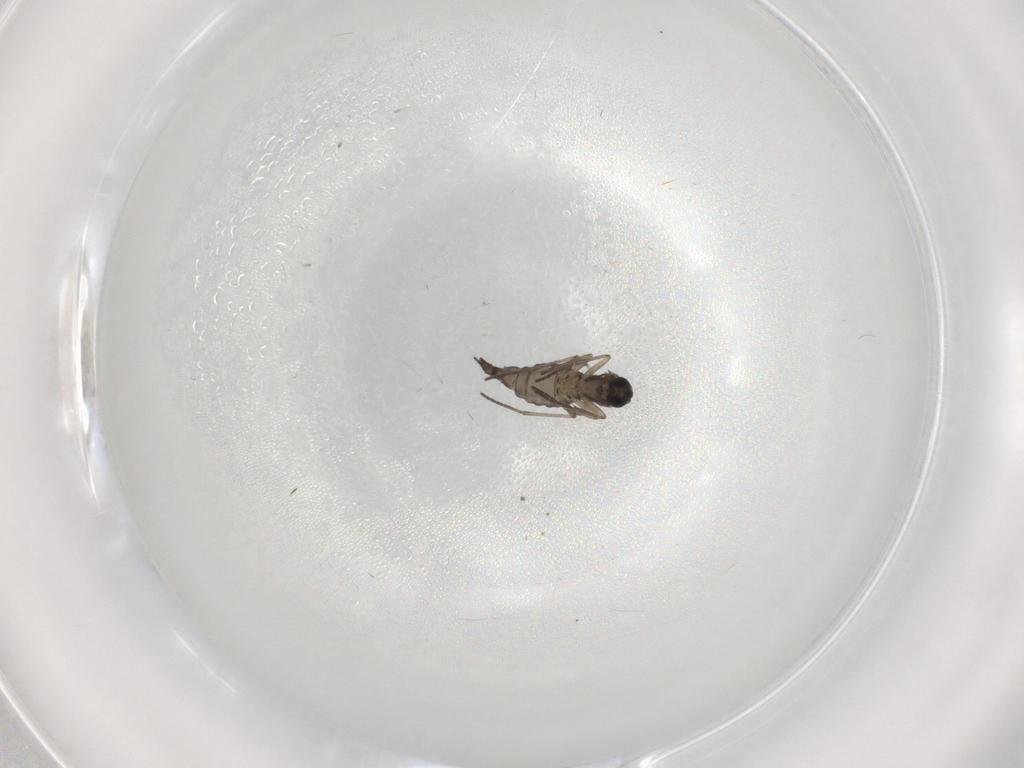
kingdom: Animalia
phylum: Arthropoda
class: Insecta
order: Diptera
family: Sciaridae
